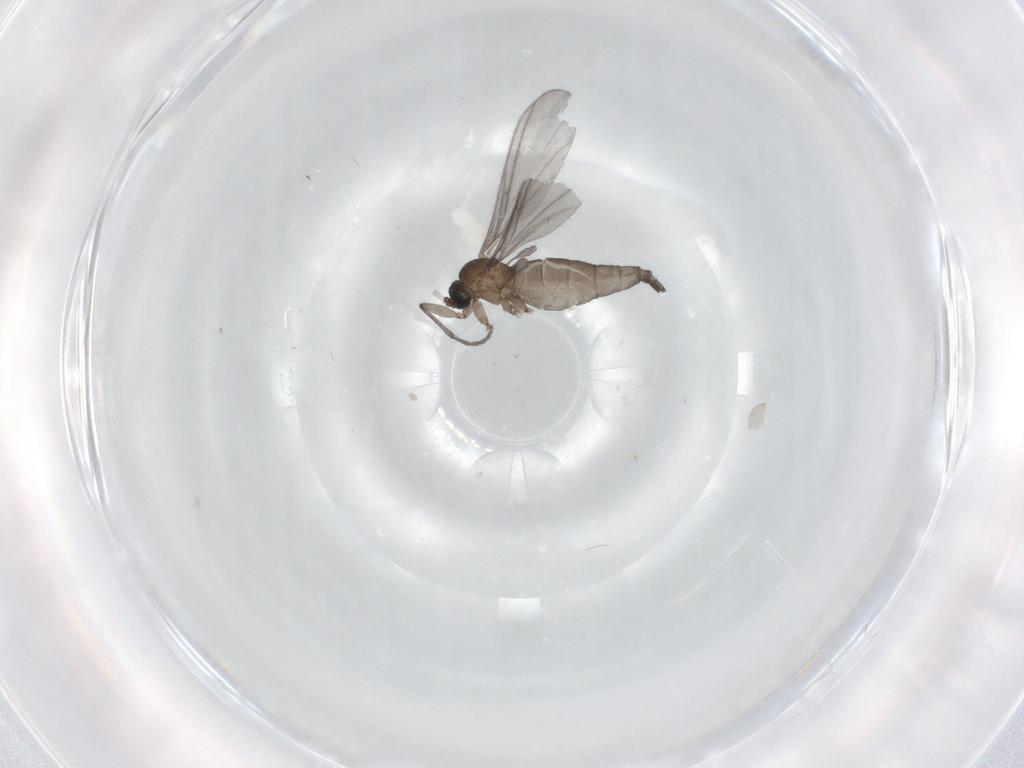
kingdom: Animalia
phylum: Arthropoda
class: Insecta
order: Diptera
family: Sciaridae
